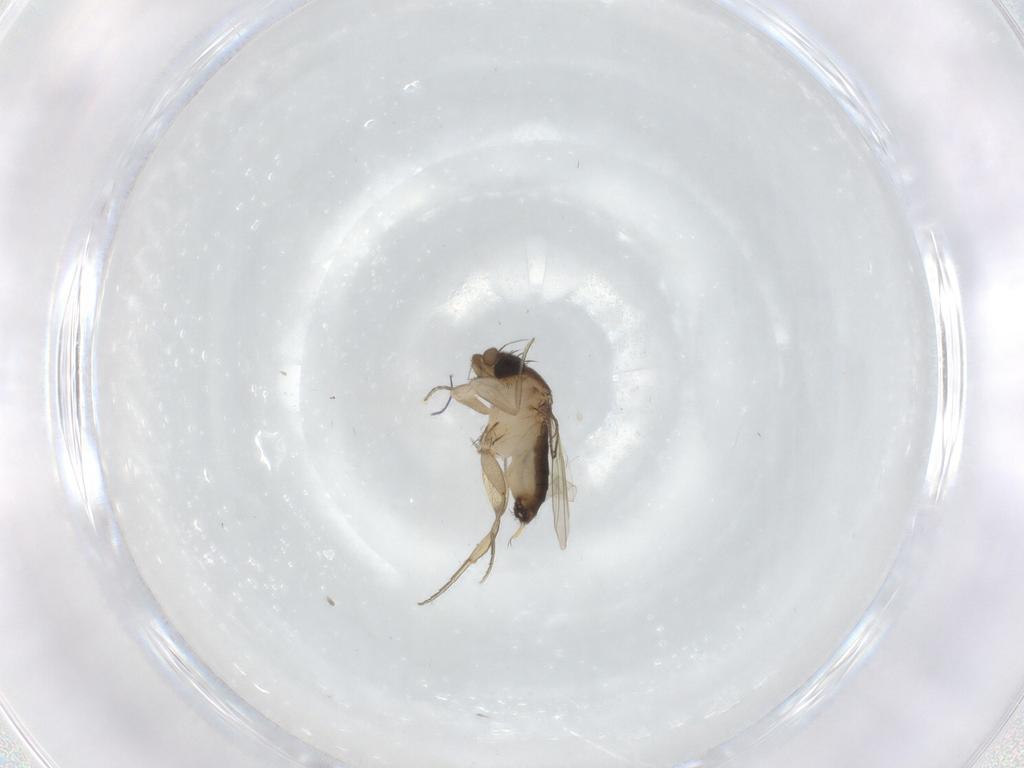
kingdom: Animalia
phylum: Arthropoda
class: Insecta
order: Diptera
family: Phoridae
